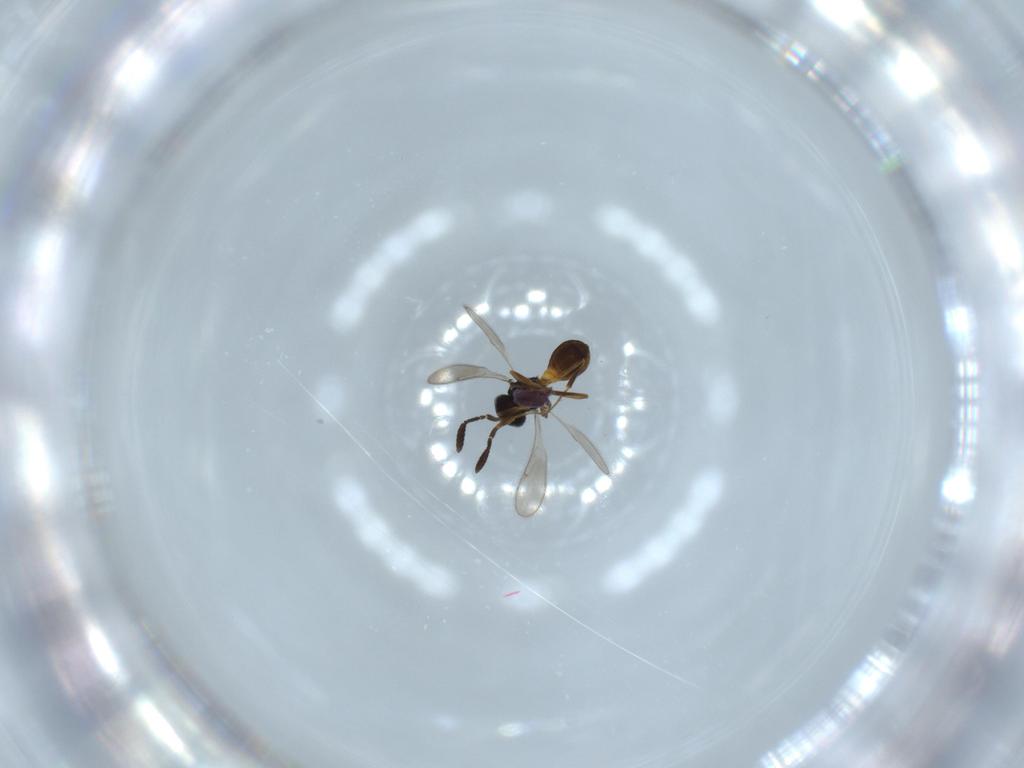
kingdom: Animalia
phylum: Arthropoda
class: Insecta
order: Hymenoptera
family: Scelionidae
